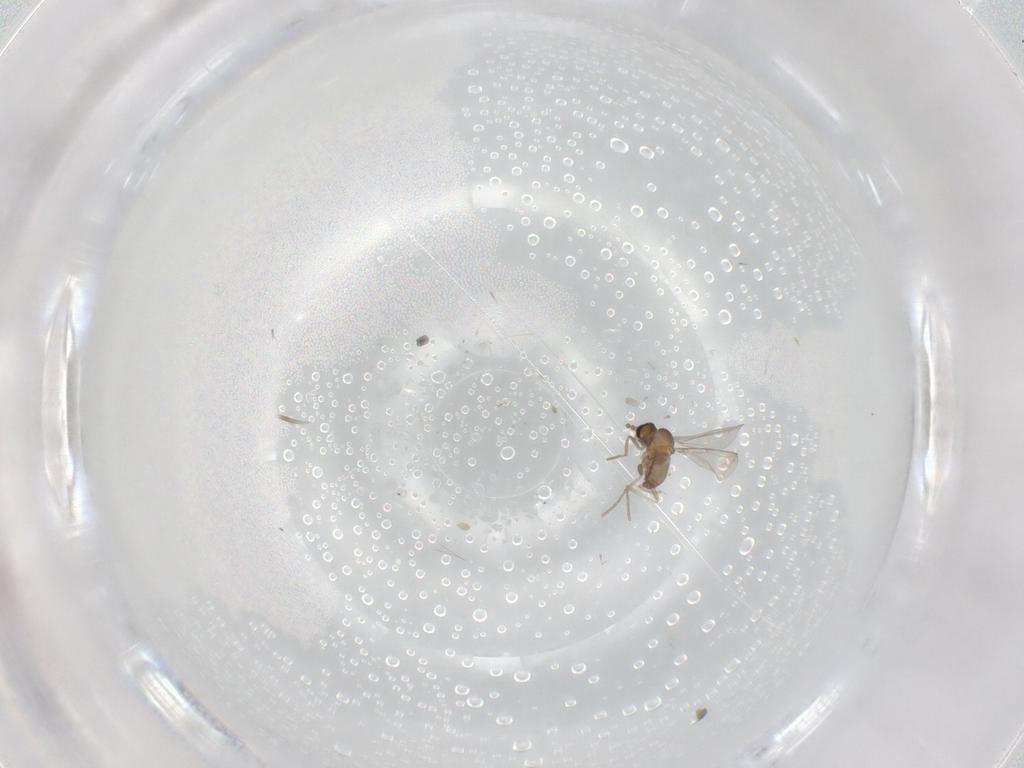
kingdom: Animalia
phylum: Arthropoda
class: Insecta
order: Diptera
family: Cecidomyiidae
